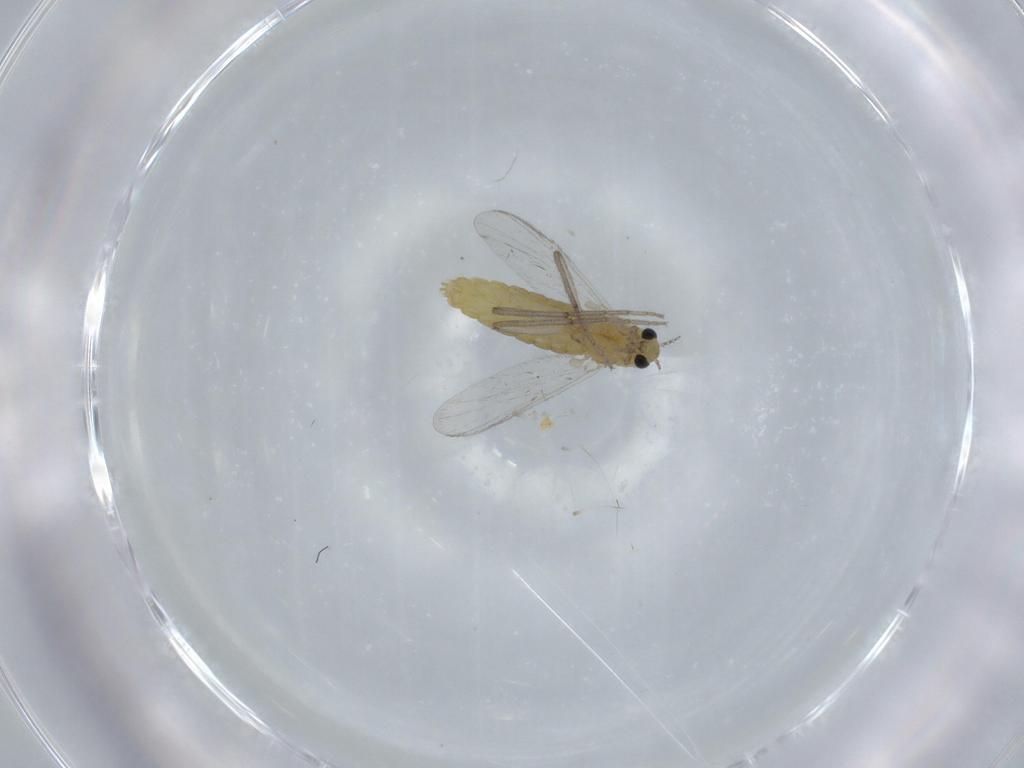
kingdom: Animalia
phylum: Arthropoda
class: Insecta
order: Diptera
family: Chironomidae
